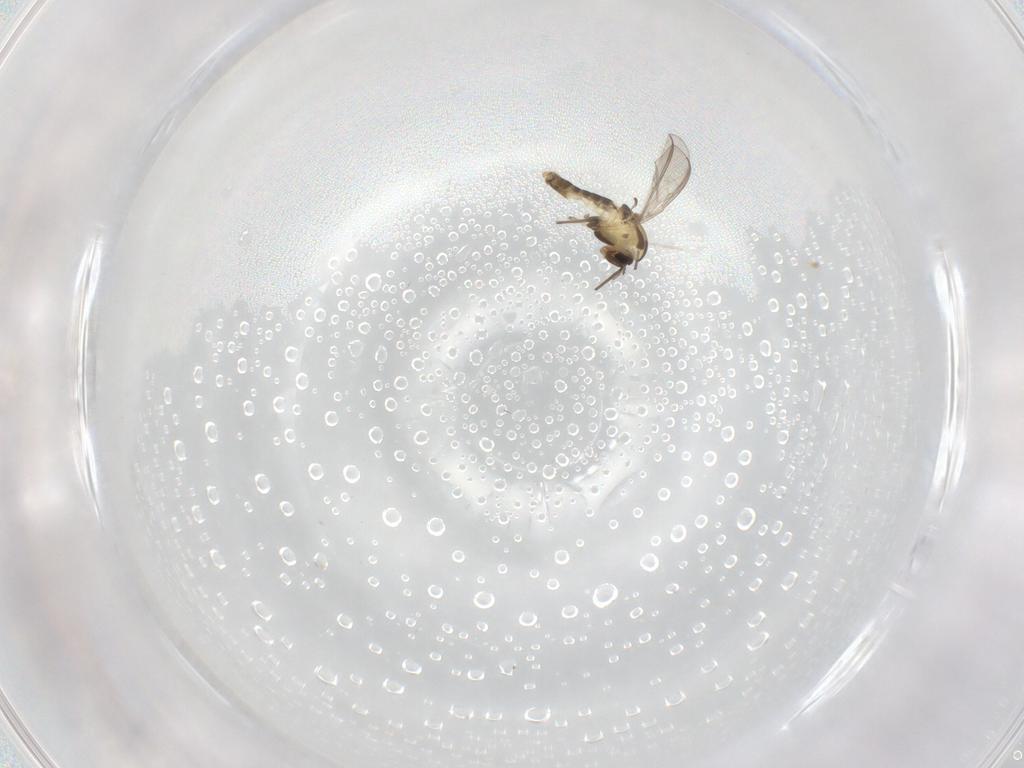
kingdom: Animalia
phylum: Arthropoda
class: Insecta
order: Diptera
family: Chironomidae
